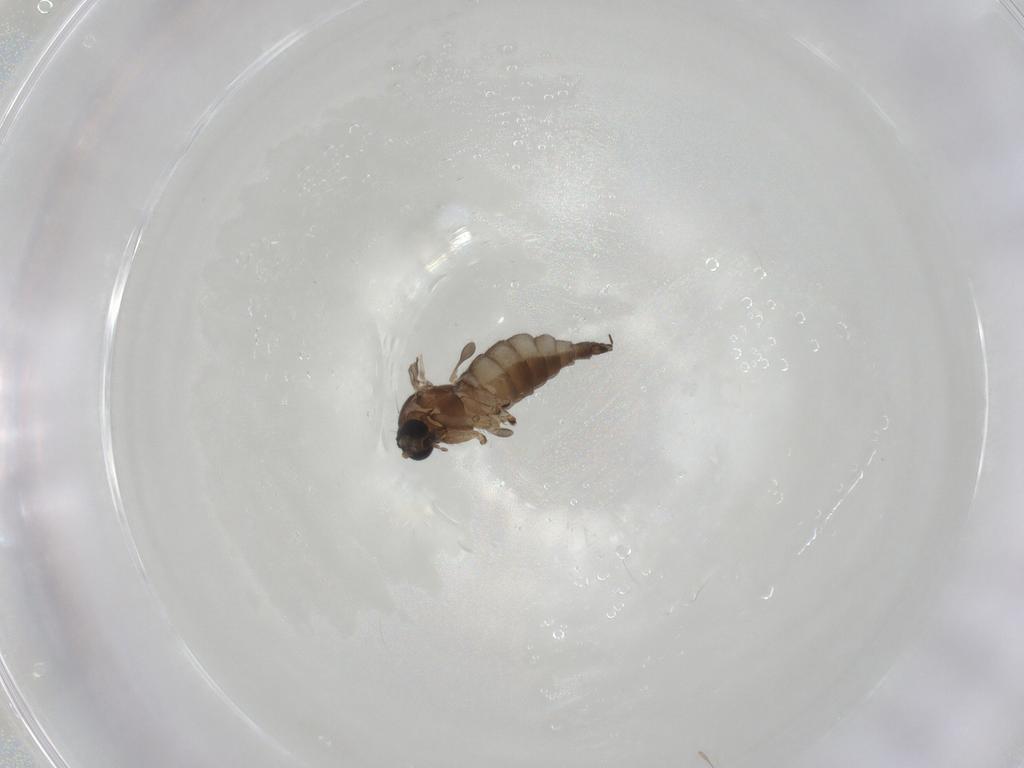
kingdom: Animalia
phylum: Arthropoda
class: Insecta
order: Diptera
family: Sciaridae
